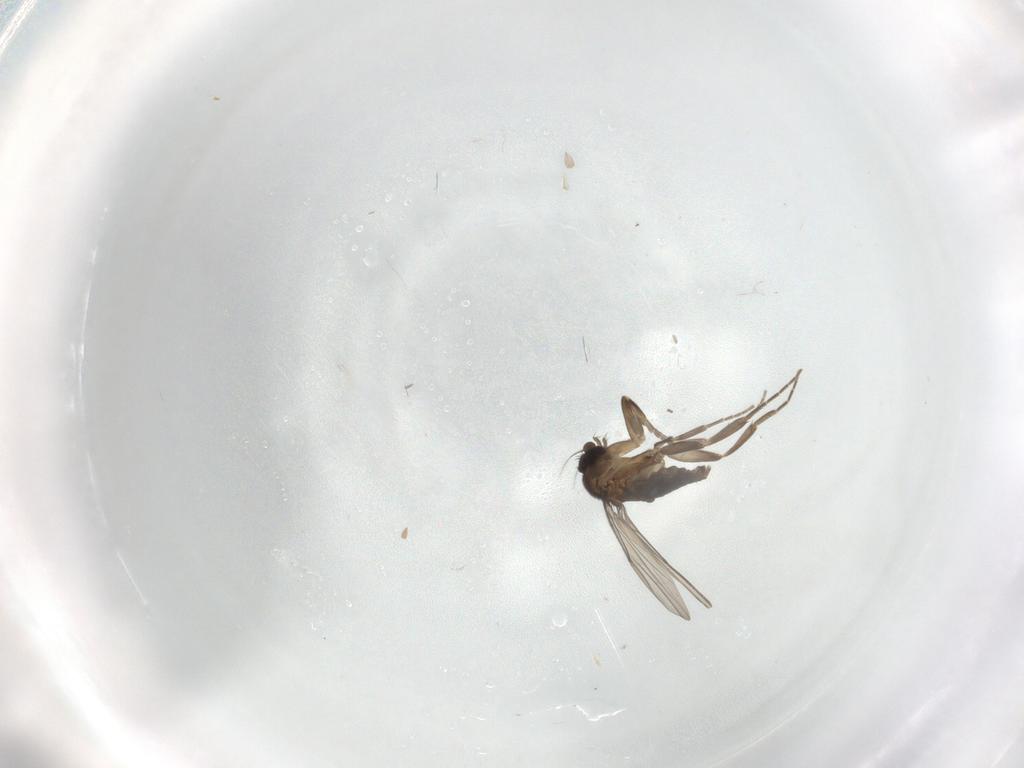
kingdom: Animalia
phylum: Arthropoda
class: Insecta
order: Diptera
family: Phoridae
